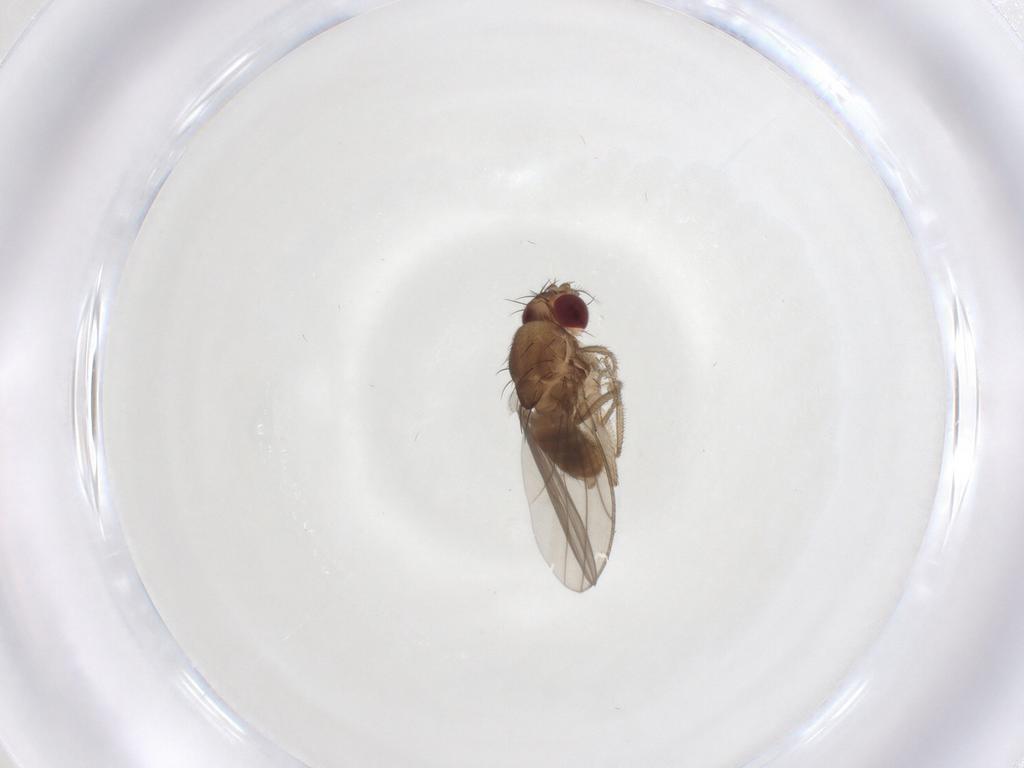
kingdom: Animalia
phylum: Arthropoda
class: Insecta
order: Diptera
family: Drosophilidae
